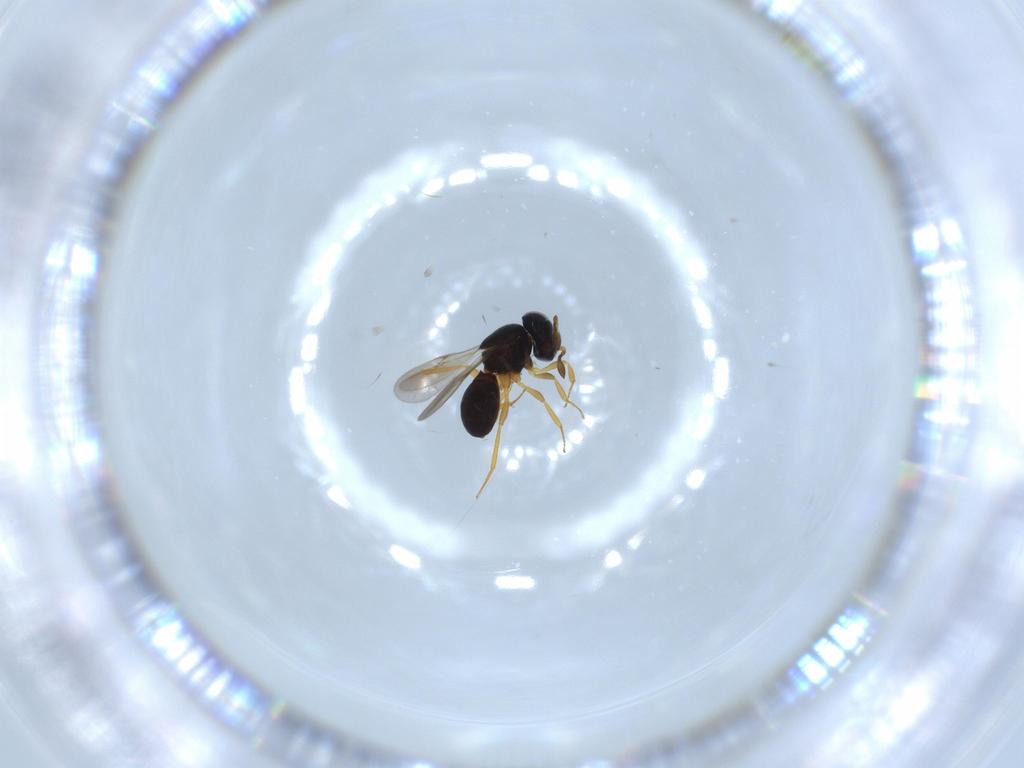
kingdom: Animalia
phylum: Arthropoda
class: Insecta
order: Hymenoptera
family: Scelionidae
